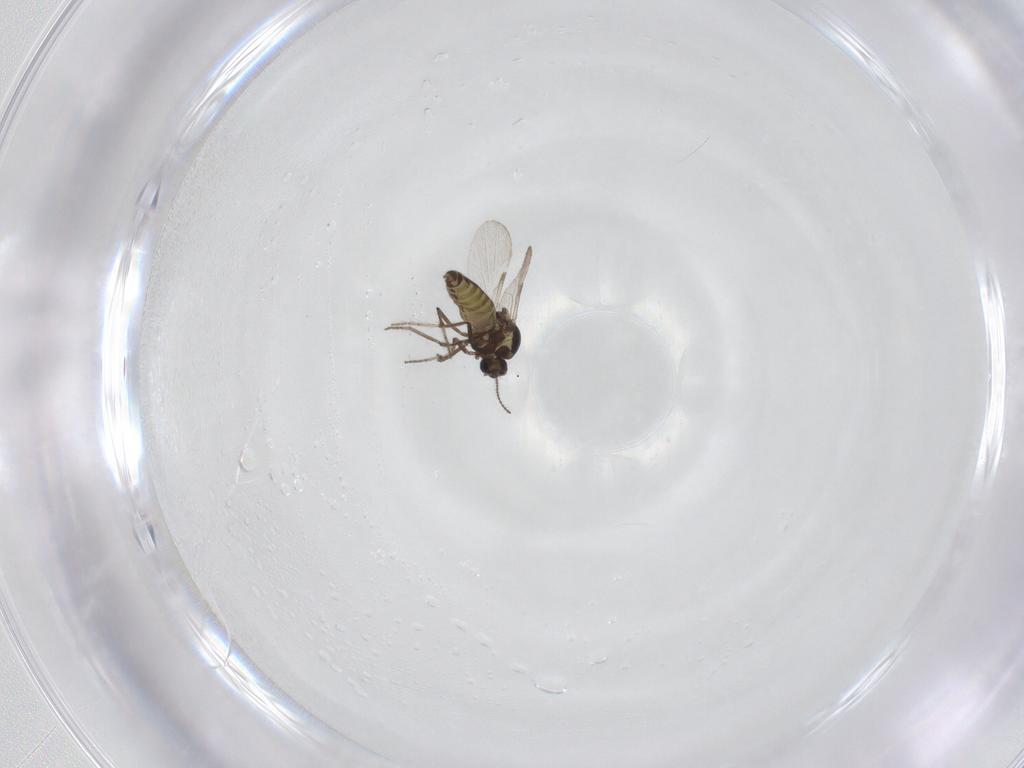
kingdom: Animalia
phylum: Arthropoda
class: Insecta
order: Diptera
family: Ceratopogonidae
